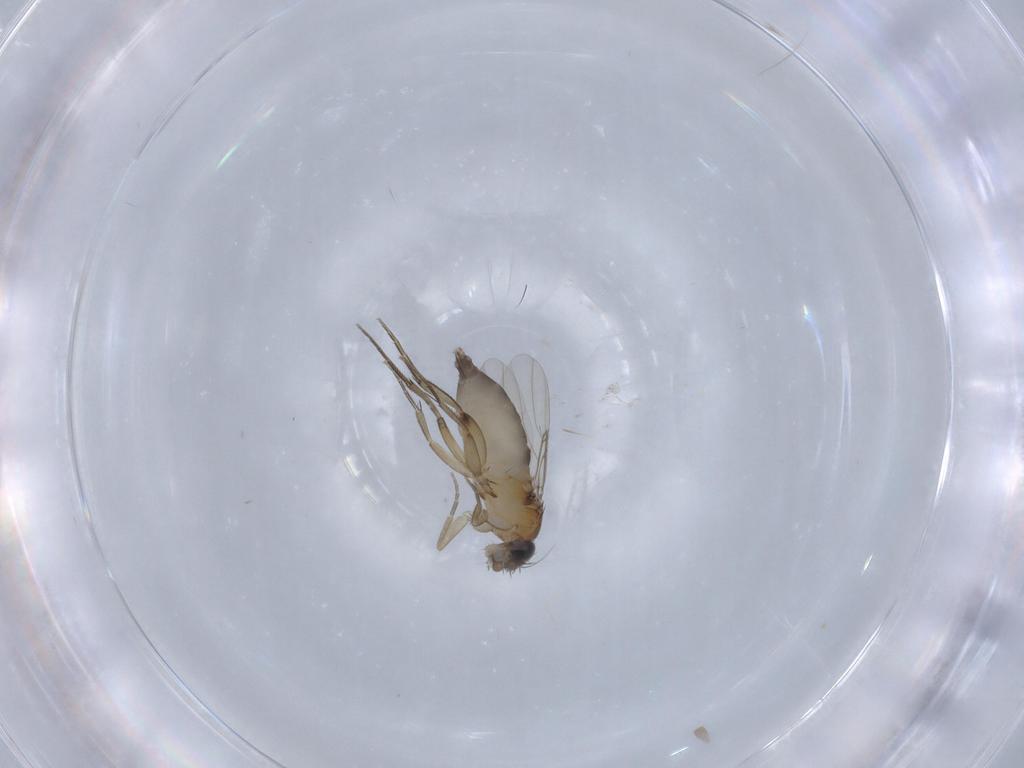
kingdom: Animalia
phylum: Arthropoda
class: Insecta
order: Diptera
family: Phoridae
